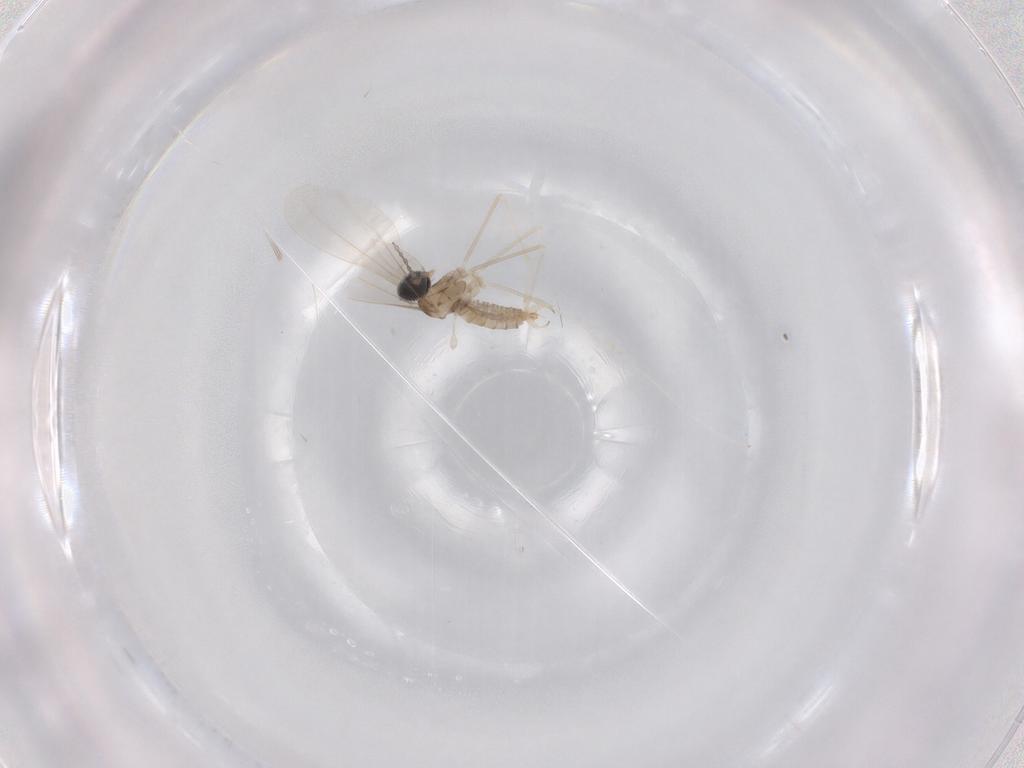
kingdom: Animalia
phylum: Arthropoda
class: Insecta
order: Diptera
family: Cecidomyiidae
